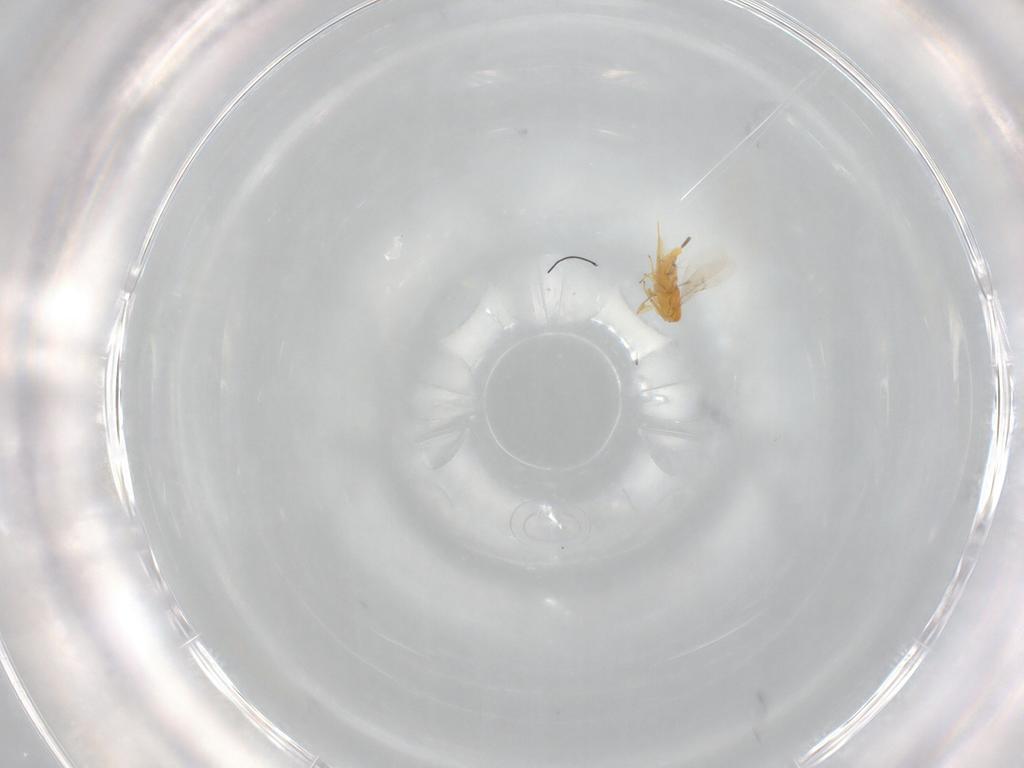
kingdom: Animalia
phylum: Arthropoda
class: Insecta
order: Hymenoptera
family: Encyrtidae
